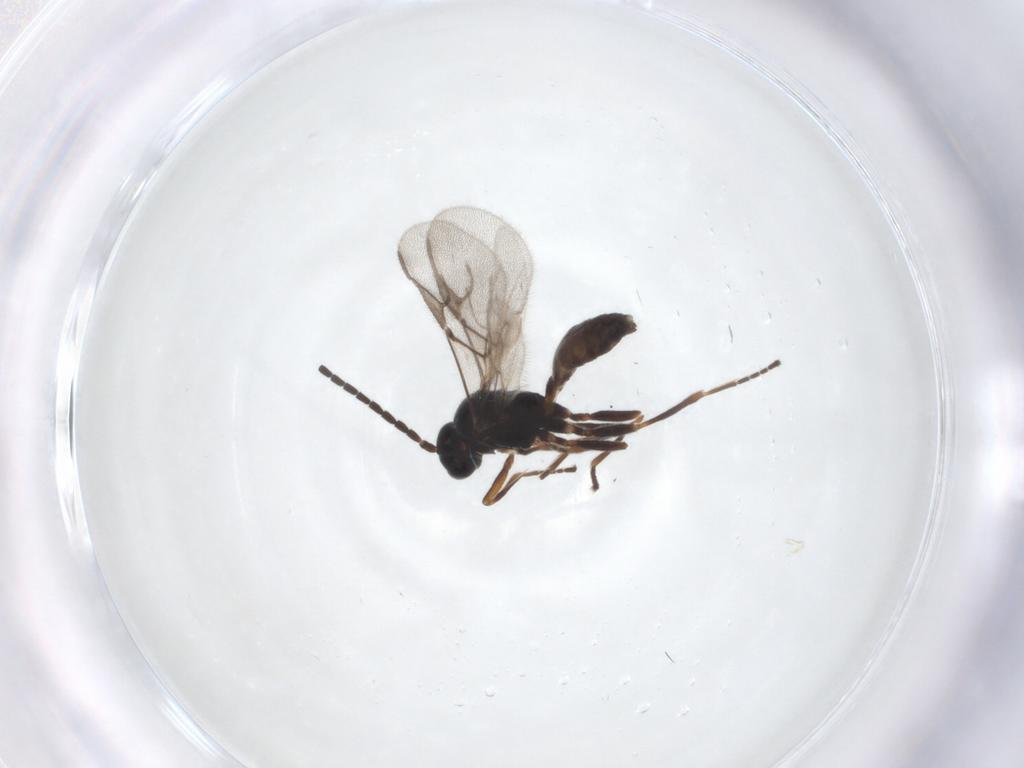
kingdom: Animalia
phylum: Arthropoda
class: Insecta
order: Hymenoptera
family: Braconidae
